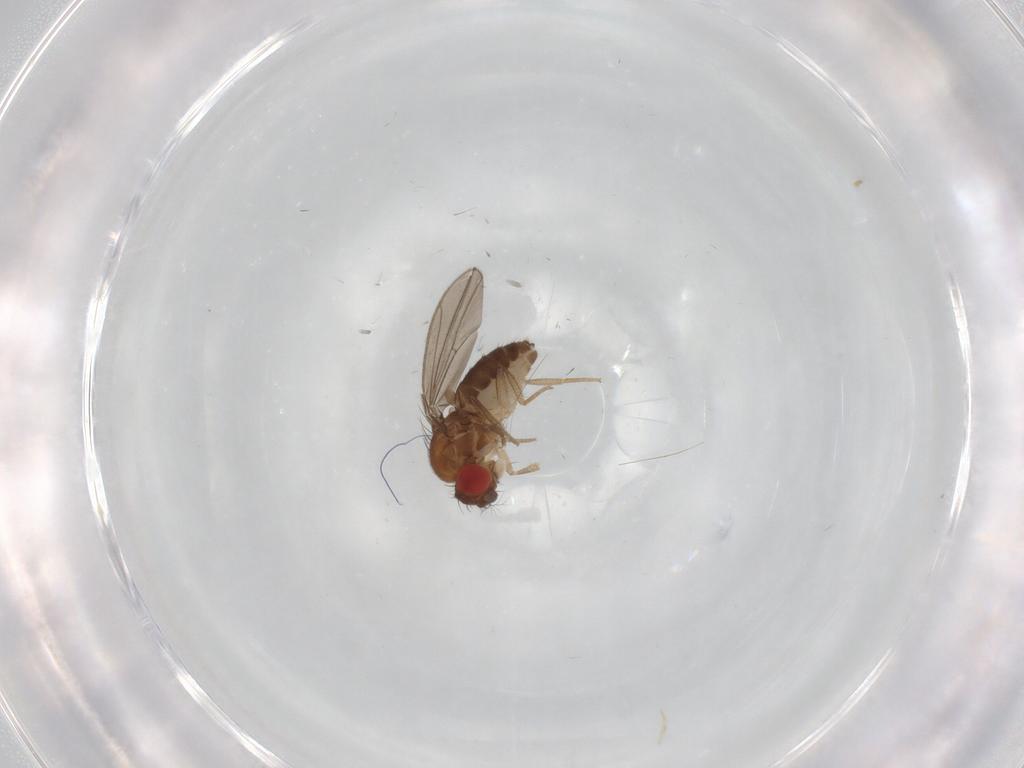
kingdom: Animalia
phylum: Arthropoda
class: Insecta
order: Diptera
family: Drosophilidae
